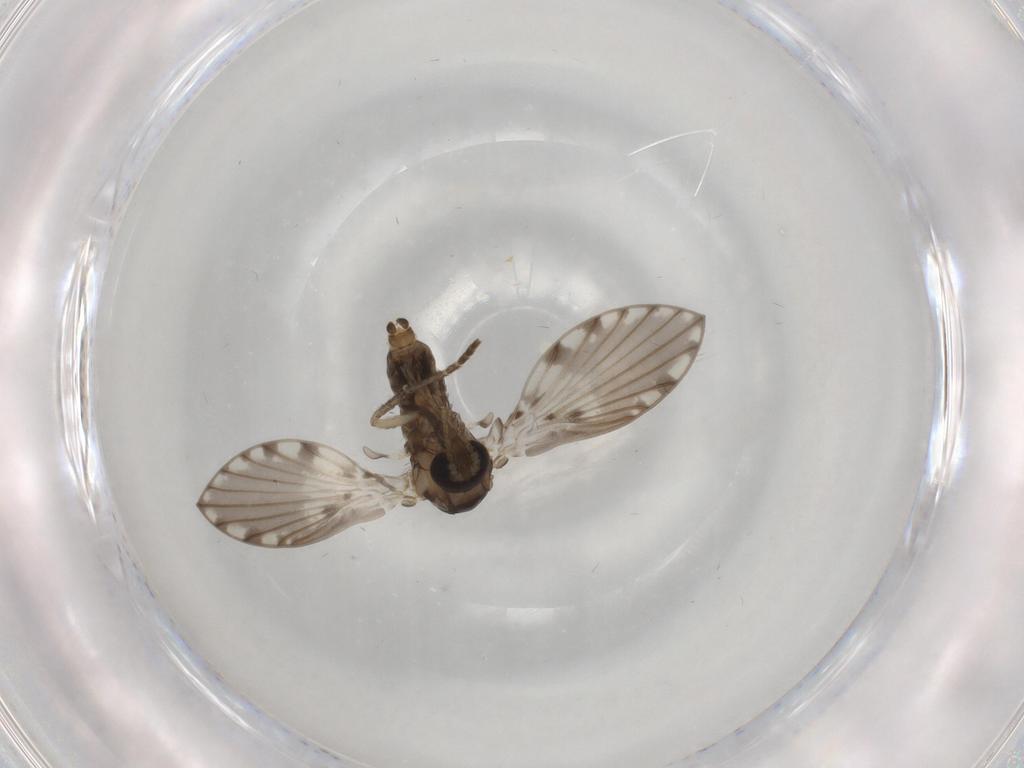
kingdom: Animalia
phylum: Arthropoda
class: Insecta
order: Diptera
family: Psychodidae
